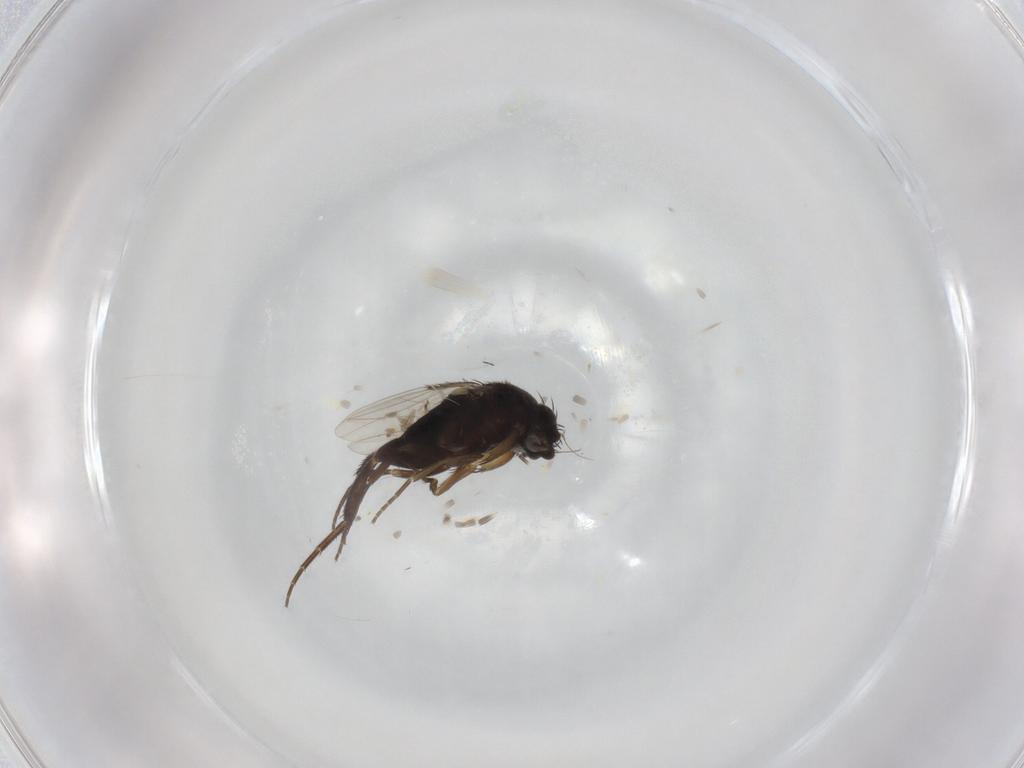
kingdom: Animalia
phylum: Arthropoda
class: Insecta
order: Diptera
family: Phoridae
